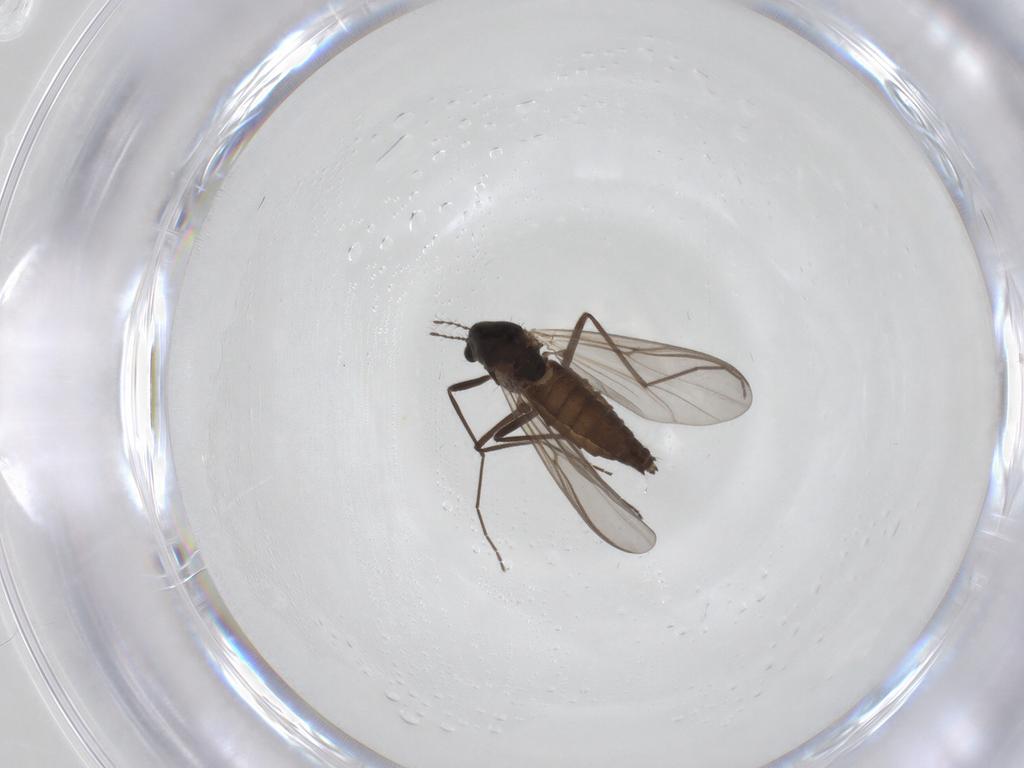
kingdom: Animalia
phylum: Arthropoda
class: Insecta
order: Diptera
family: Chironomidae
